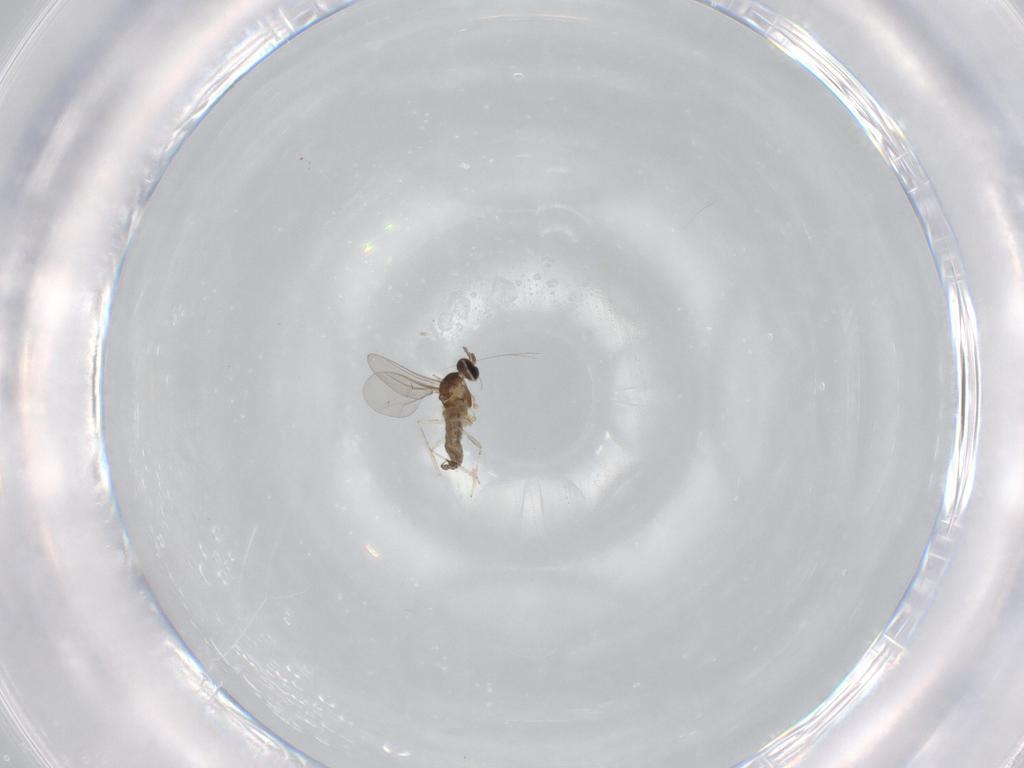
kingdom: Animalia
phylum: Arthropoda
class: Insecta
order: Diptera
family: Cecidomyiidae
